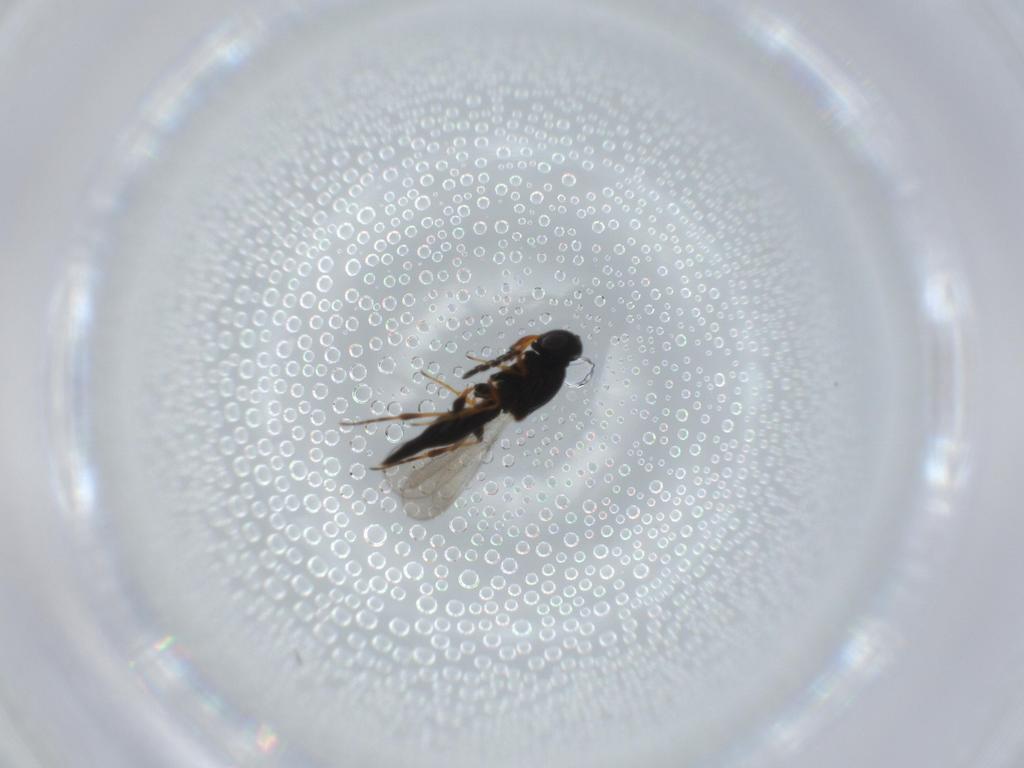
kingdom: Animalia
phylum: Arthropoda
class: Insecta
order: Hymenoptera
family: Platygastridae
